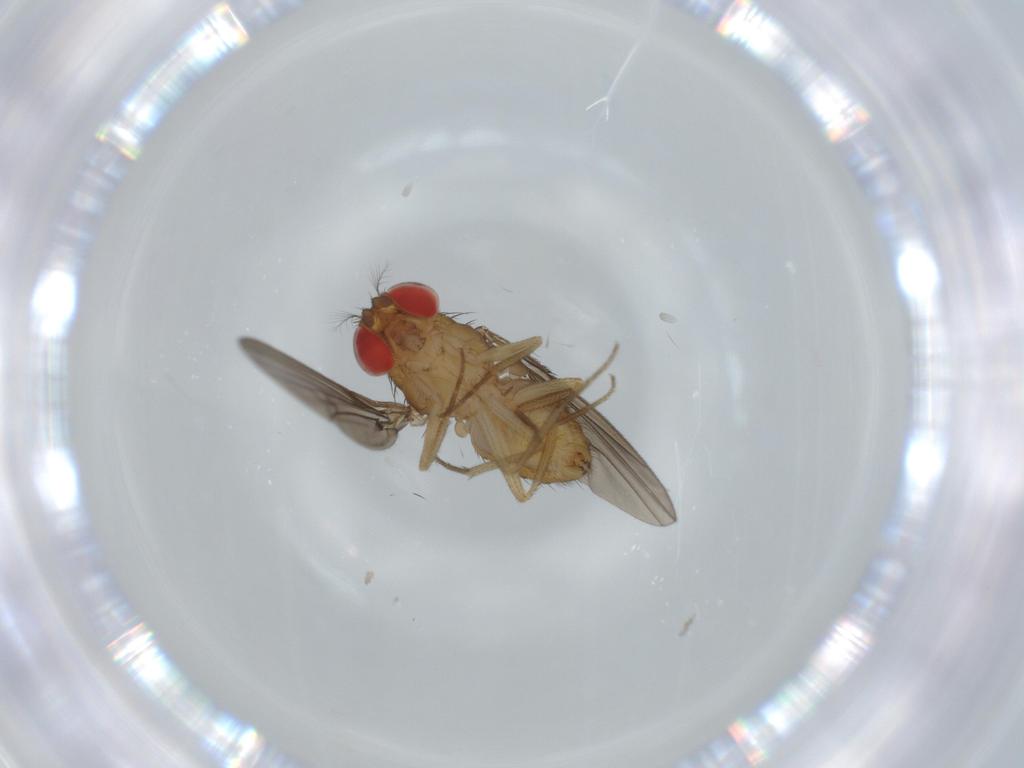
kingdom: Animalia
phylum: Arthropoda
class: Insecta
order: Diptera
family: Drosophilidae
